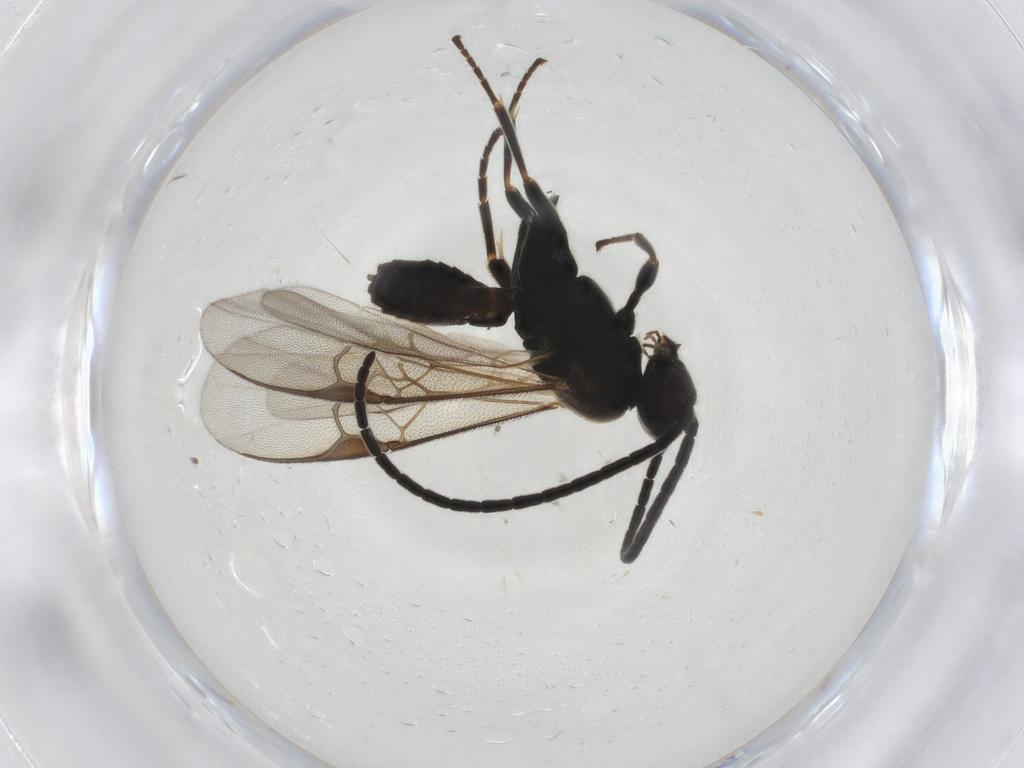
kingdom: Animalia
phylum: Arthropoda
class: Insecta
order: Hymenoptera
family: Braconidae
